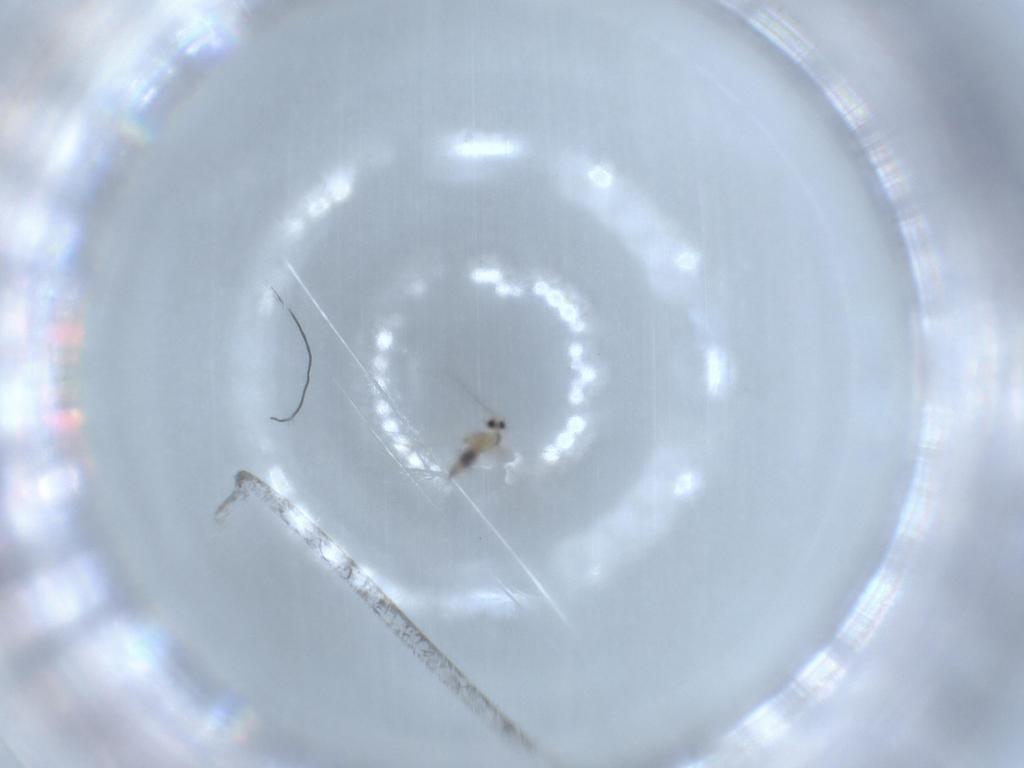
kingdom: Animalia
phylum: Arthropoda
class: Insecta
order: Diptera
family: Cecidomyiidae
